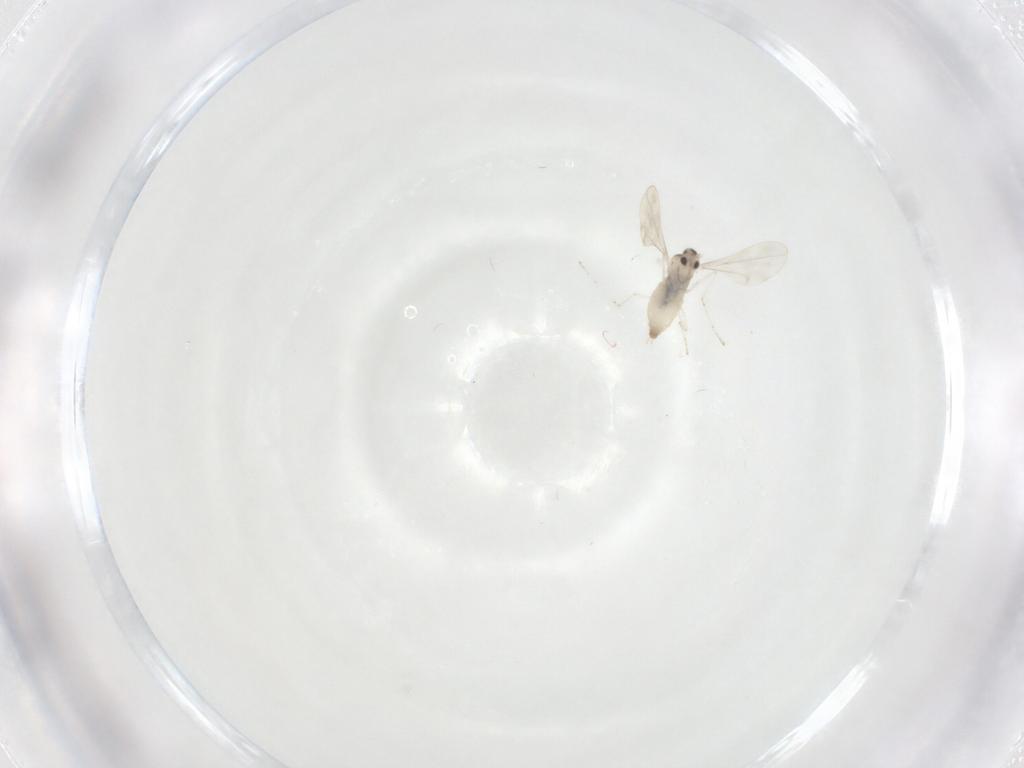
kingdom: Animalia
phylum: Arthropoda
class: Insecta
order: Diptera
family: Cecidomyiidae
